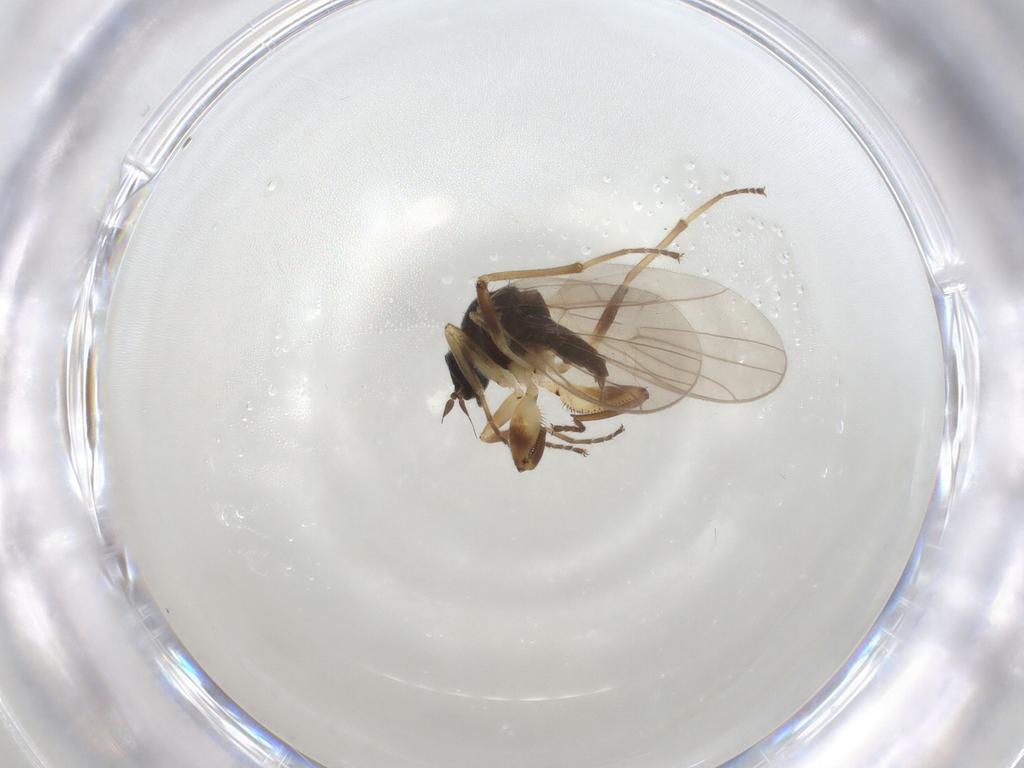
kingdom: Animalia
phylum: Arthropoda
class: Insecta
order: Diptera
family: Hybotidae
